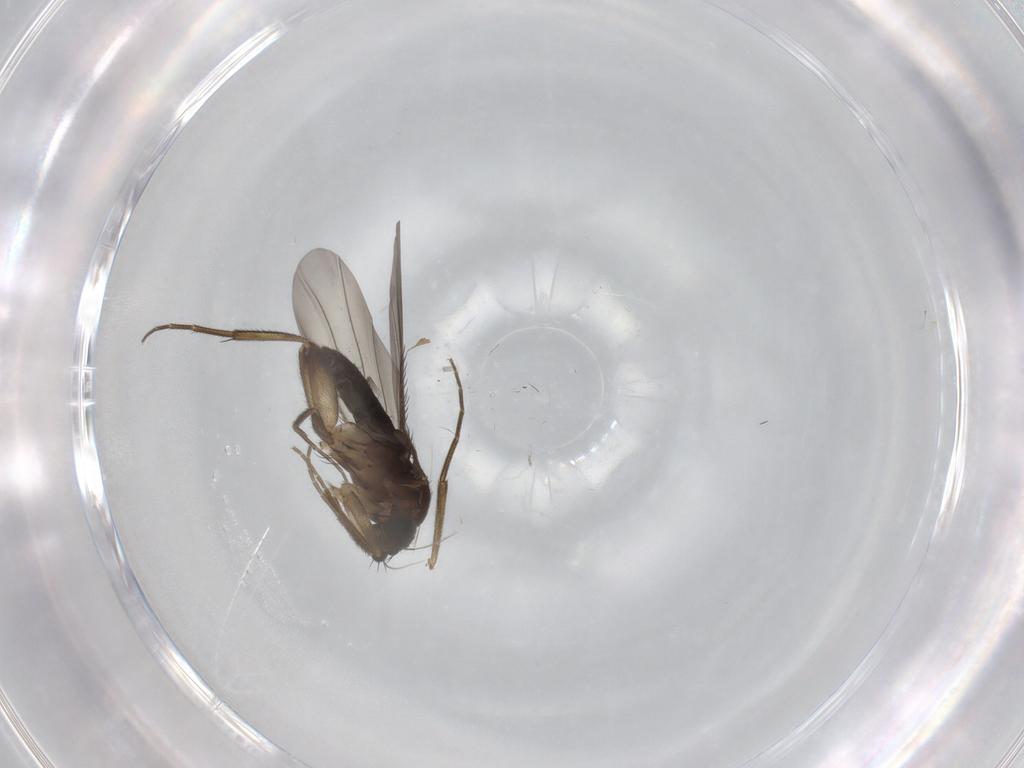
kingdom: Animalia
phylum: Arthropoda
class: Insecta
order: Diptera
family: Phoridae
